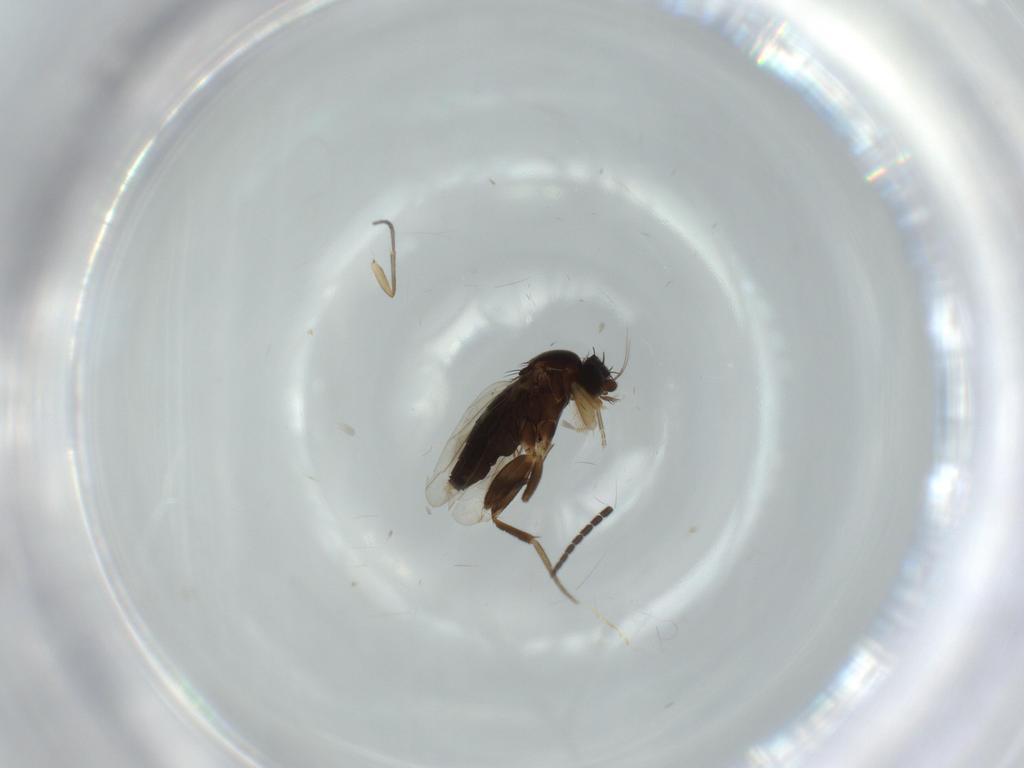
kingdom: Animalia
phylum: Arthropoda
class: Insecta
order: Diptera
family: Phoridae
